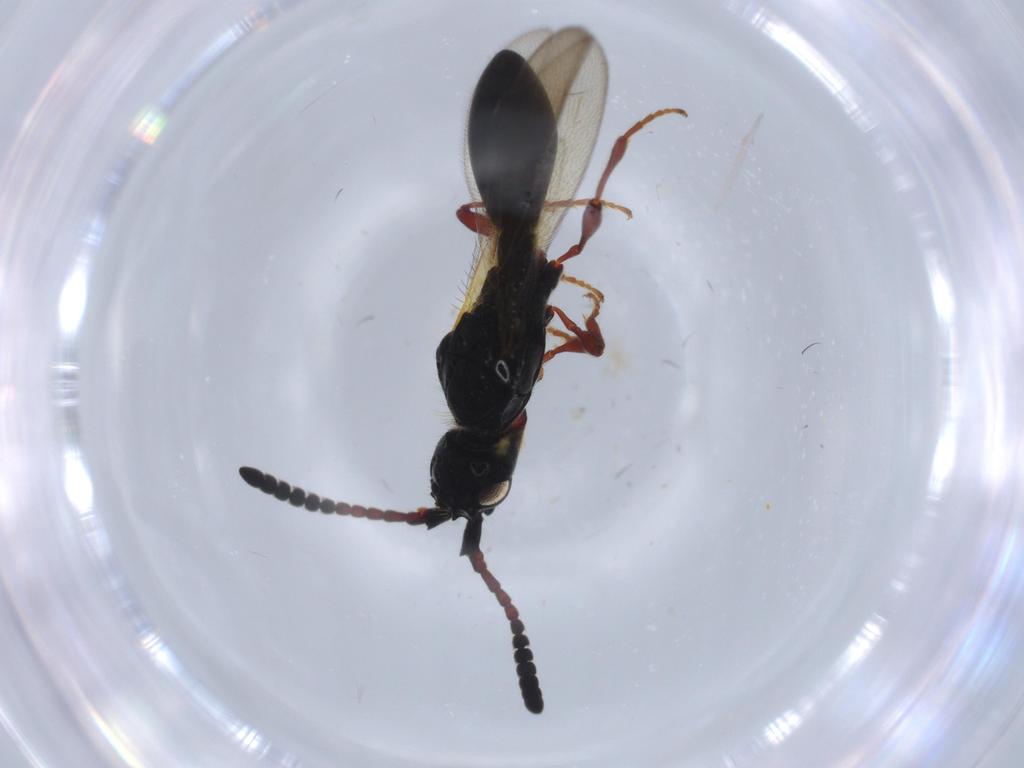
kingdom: Animalia
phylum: Arthropoda
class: Insecta
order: Hymenoptera
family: Diapriidae
